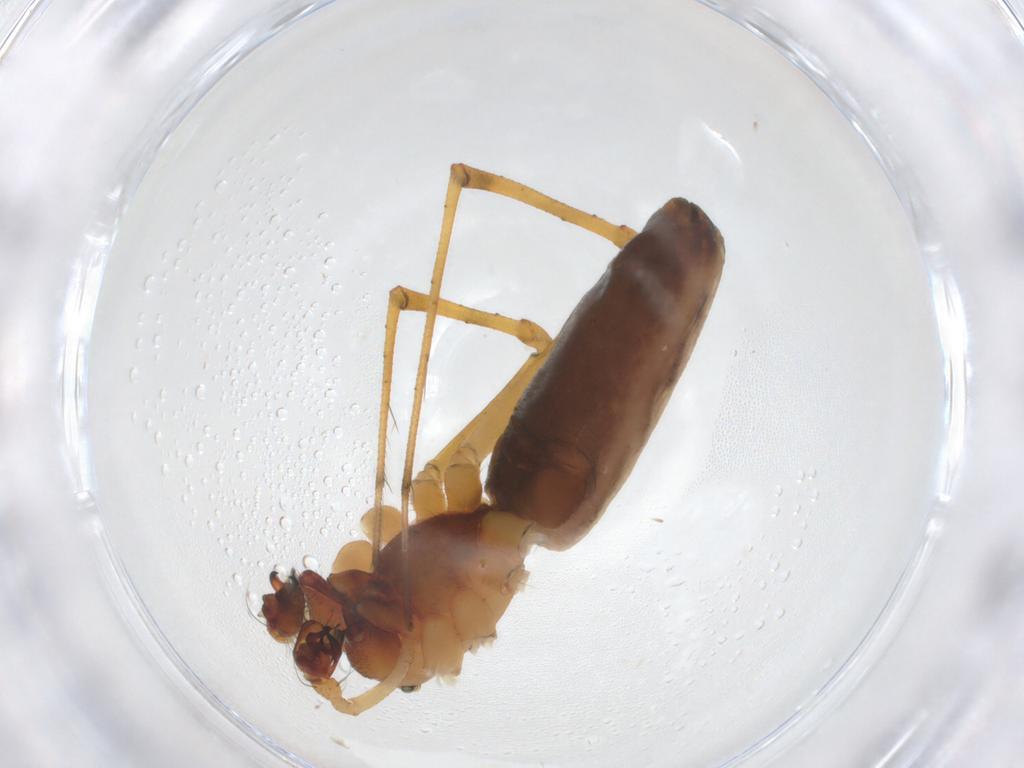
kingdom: Animalia
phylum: Arthropoda
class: Arachnida
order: Araneae
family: Linyphiidae
